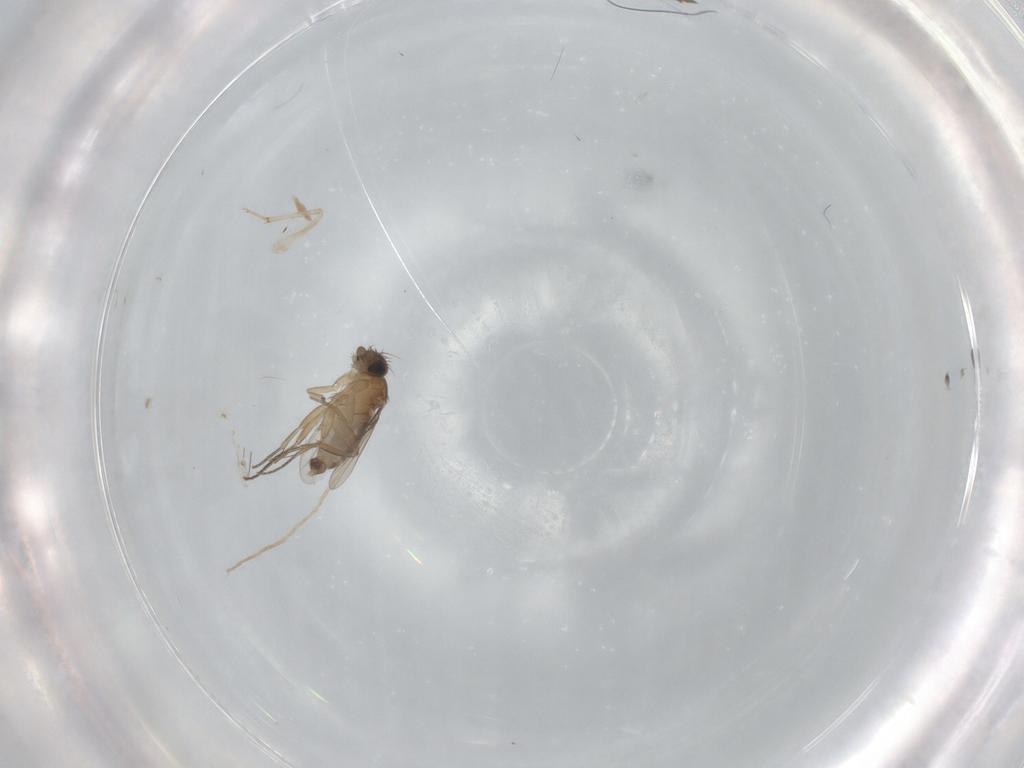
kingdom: Animalia
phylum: Arthropoda
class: Insecta
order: Diptera
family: Phoridae
